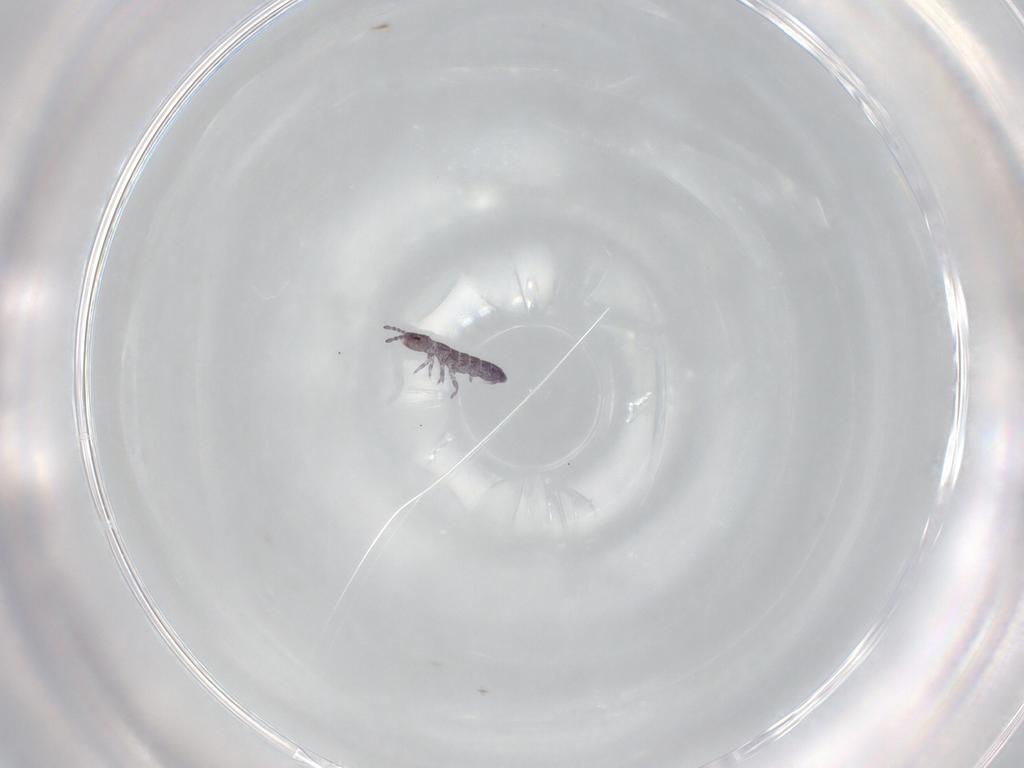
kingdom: Animalia
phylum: Arthropoda
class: Collembola
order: Entomobryomorpha
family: Isotomidae
